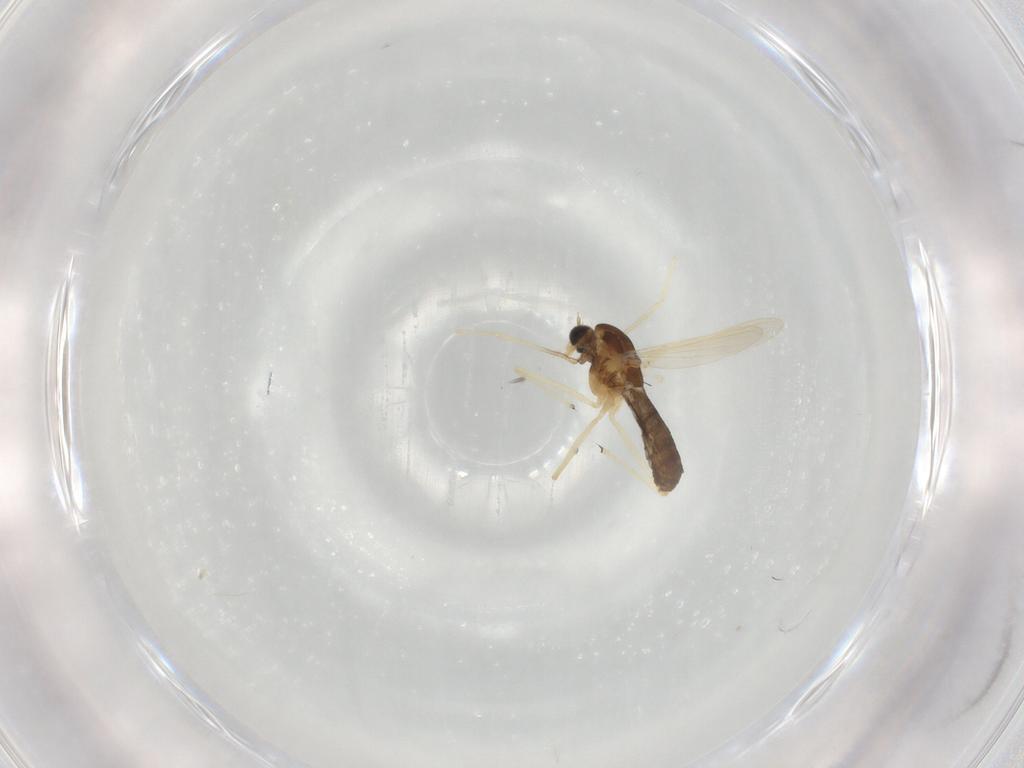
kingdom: Animalia
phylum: Arthropoda
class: Insecta
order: Diptera
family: Chironomidae
